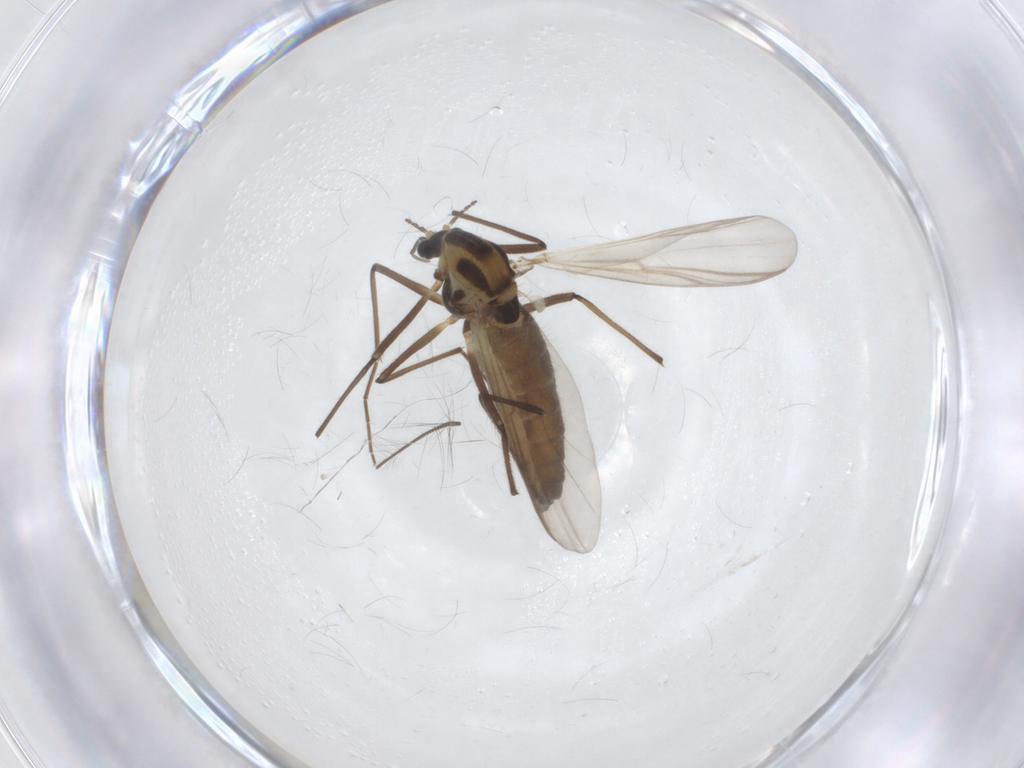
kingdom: Animalia
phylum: Arthropoda
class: Insecta
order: Diptera
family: Chironomidae
